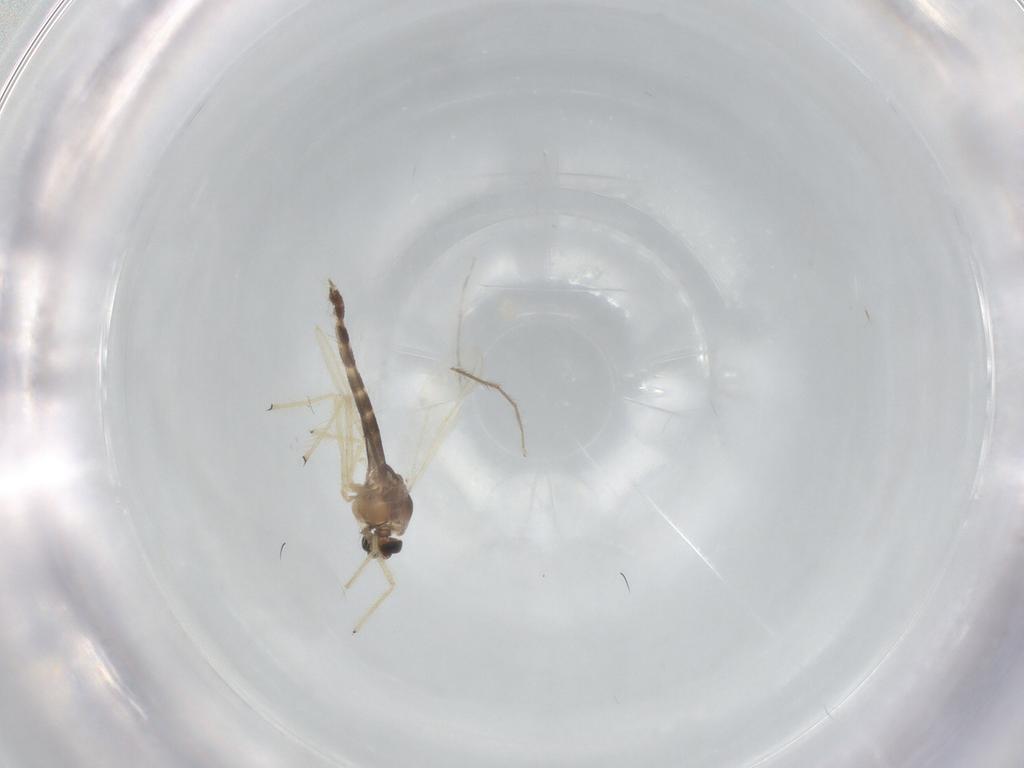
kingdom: Animalia
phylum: Arthropoda
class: Insecta
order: Diptera
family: Chironomidae
